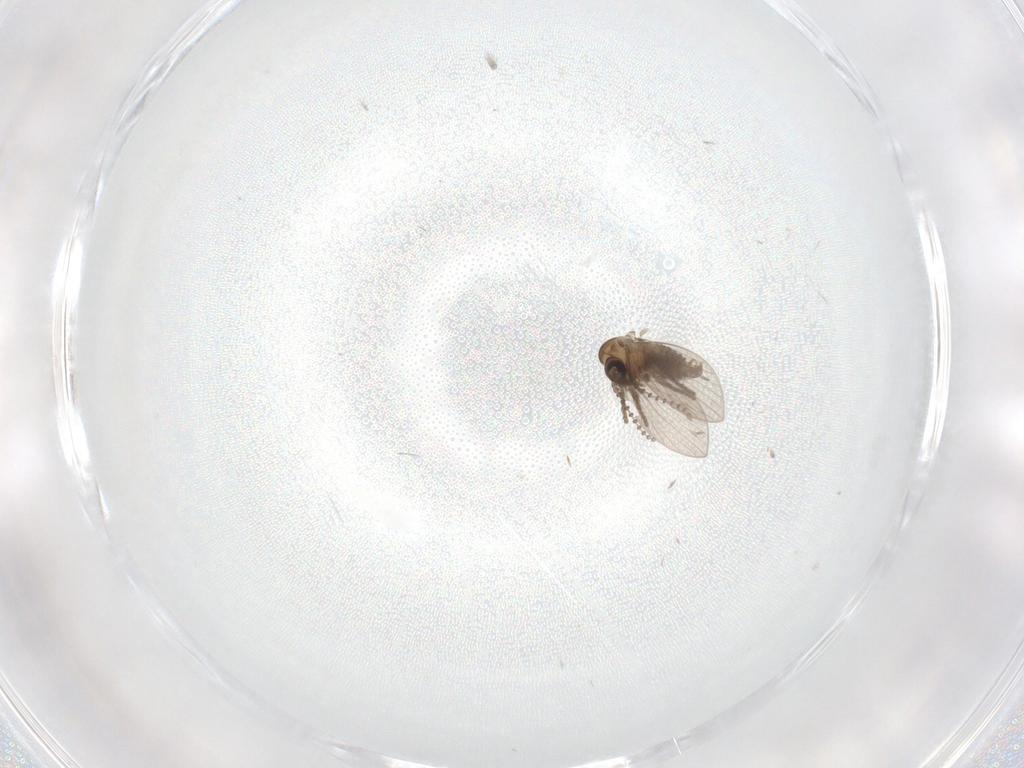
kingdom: Animalia
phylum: Arthropoda
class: Insecta
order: Diptera
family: Psychodidae
